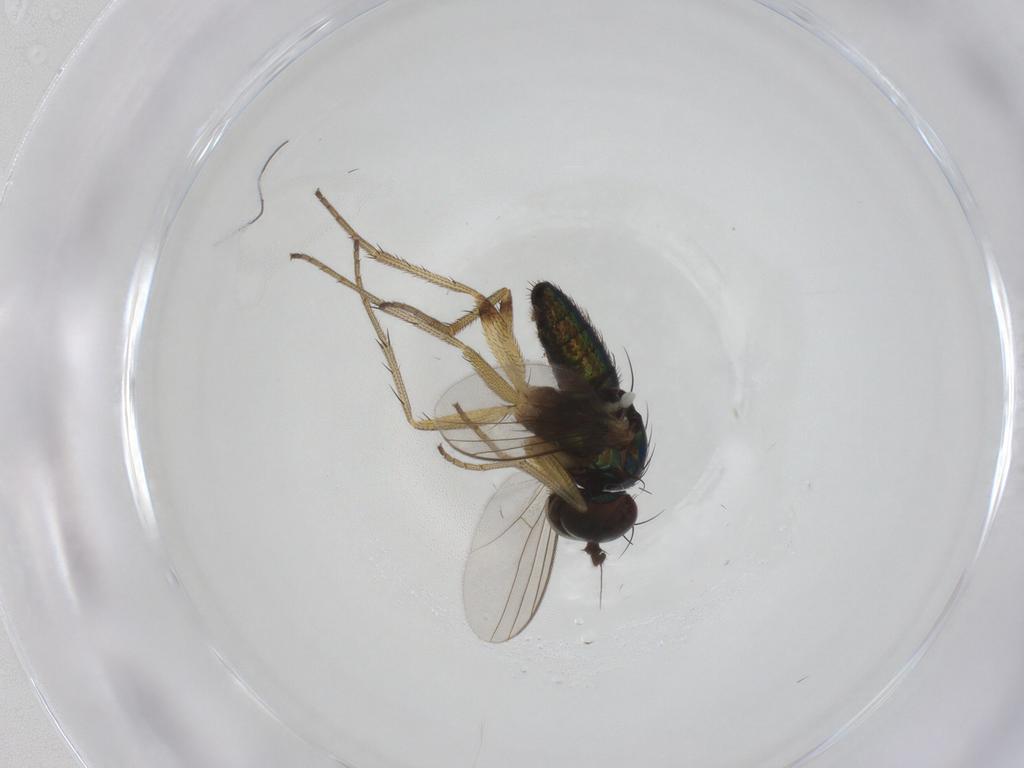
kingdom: Animalia
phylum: Arthropoda
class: Insecta
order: Diptera
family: Dolichopodidae
